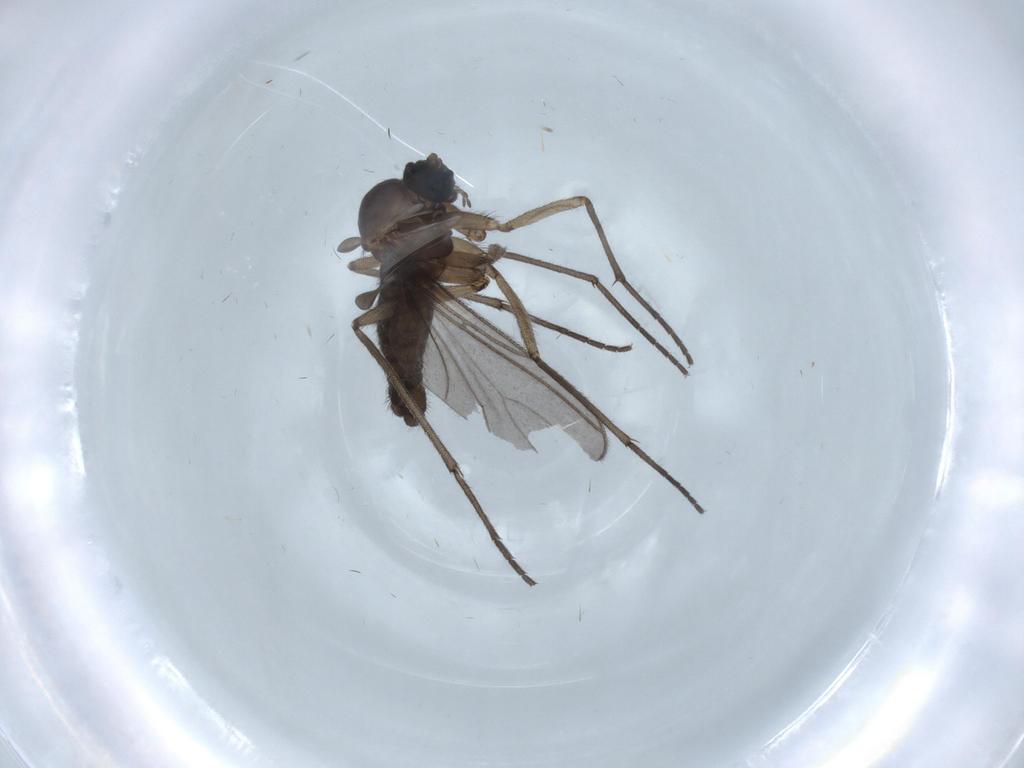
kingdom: Animalia
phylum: Arthropoda
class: Insecta
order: Diptera
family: Sciaridae
